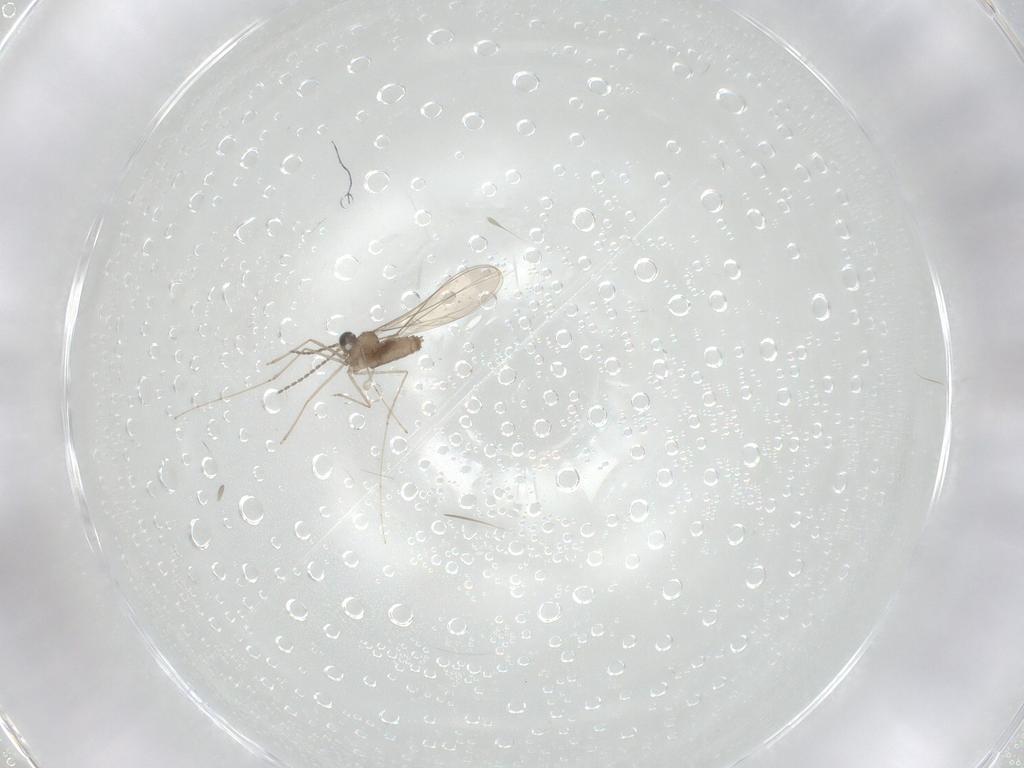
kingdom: Animalia
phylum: Arthropoda
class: Insecta
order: Diptera
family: Cecidomyiidae
